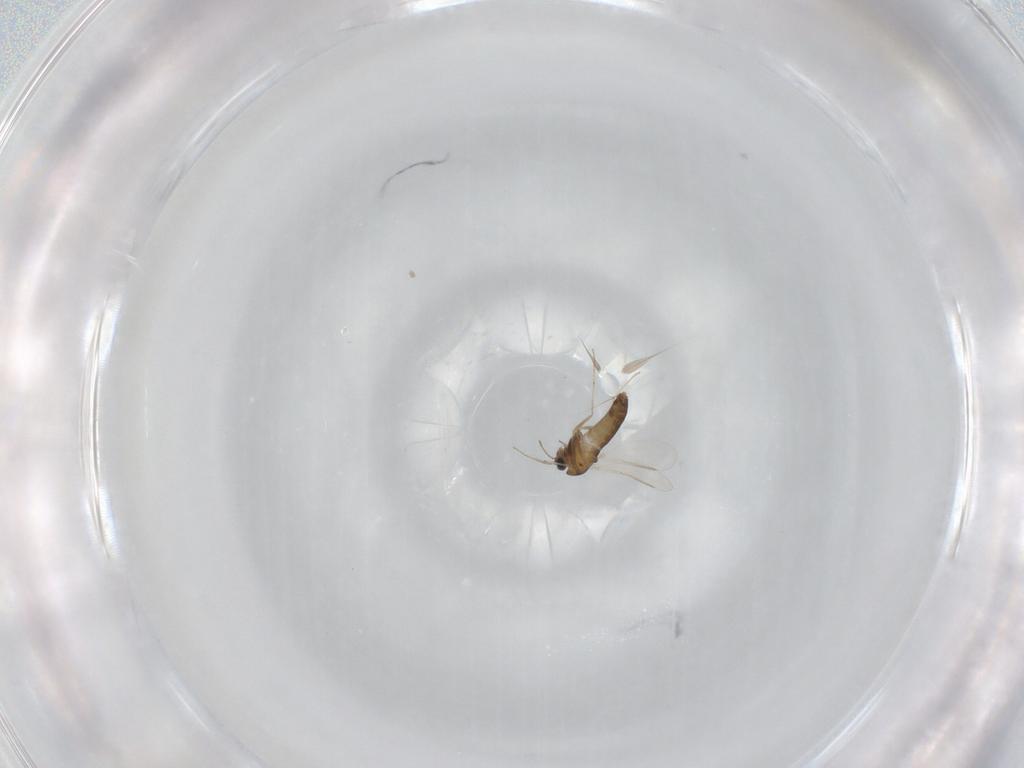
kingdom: Animalia
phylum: Arthropoda
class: Insecta
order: Diptera
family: Chironomidae
